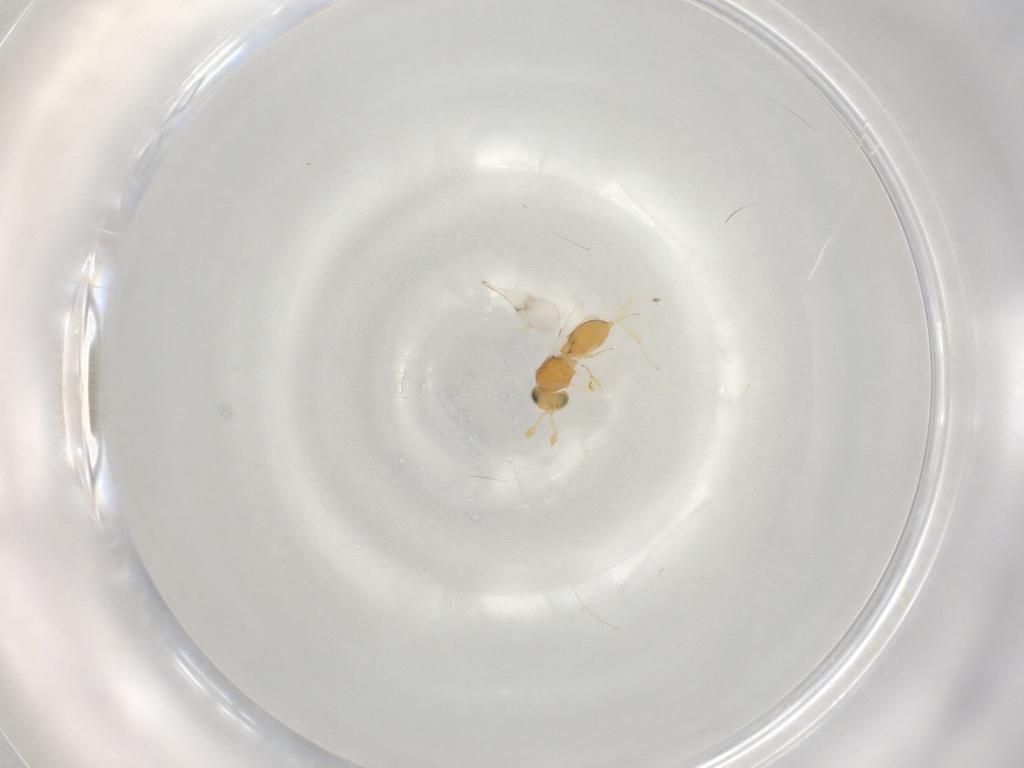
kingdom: Animalia
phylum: Arthropoda
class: Insecta
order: Hymenoptera
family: Scelionidae
